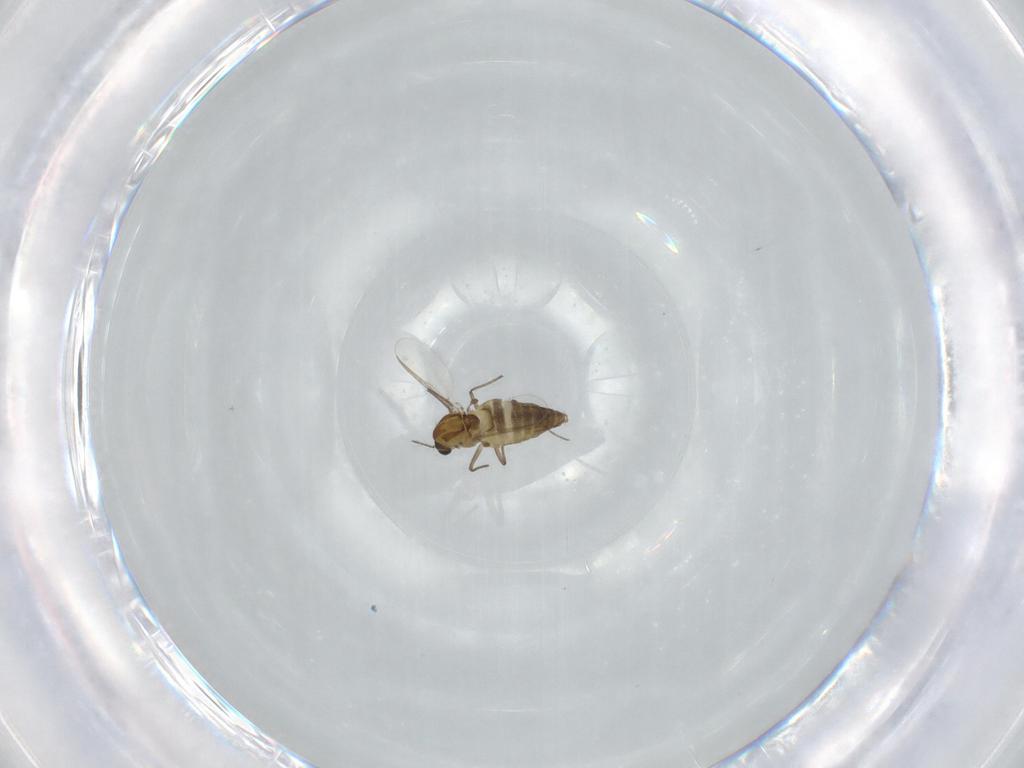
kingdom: Animalia
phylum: Arthropoda
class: Insecta
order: Diptera
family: Chironomidae
